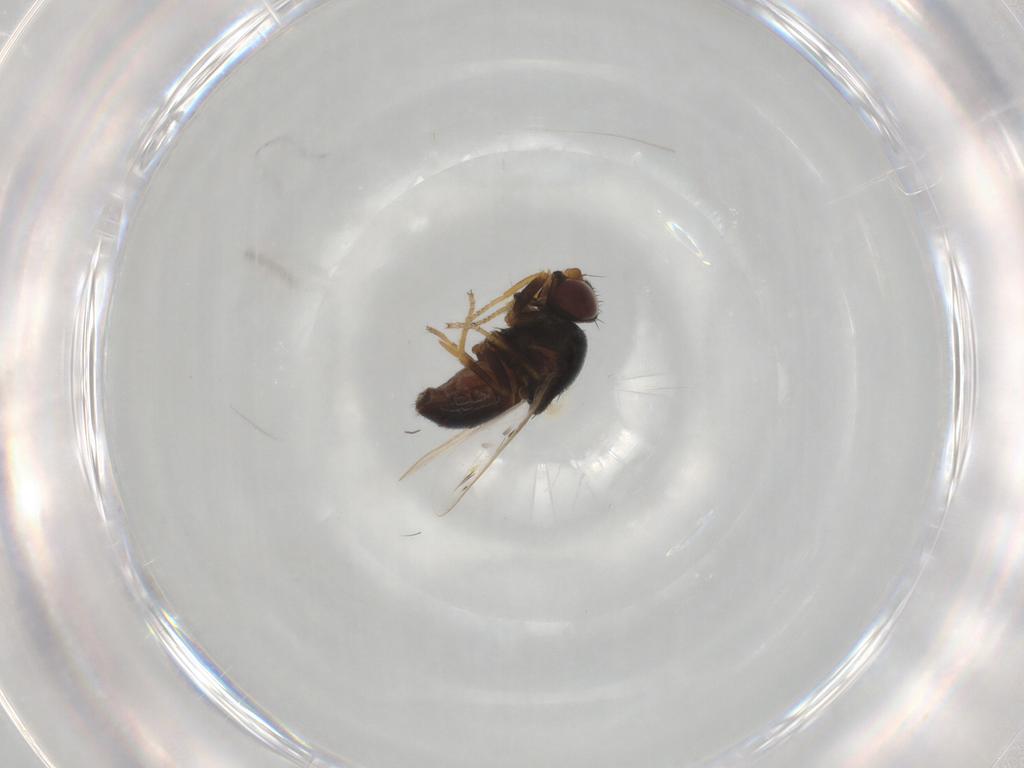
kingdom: Animalia
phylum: Arthropoda
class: Insecta
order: Diptera
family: Chloropidae
